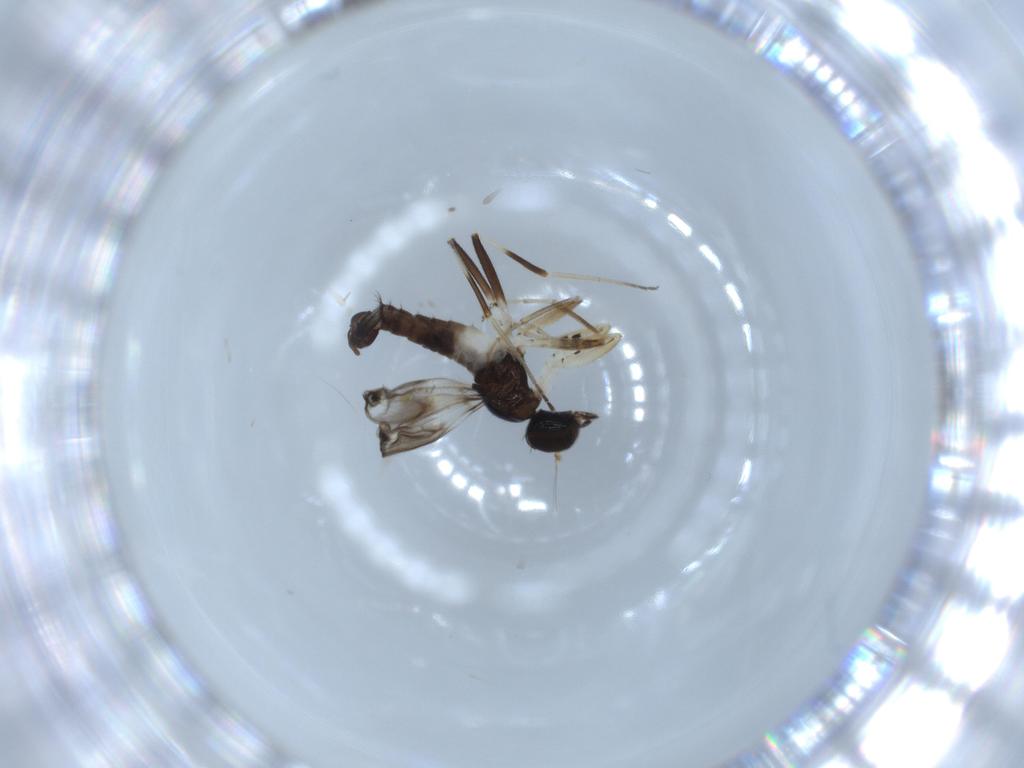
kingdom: Animalia
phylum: Arthropoda
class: Insecta
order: Diptera
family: Hybotidae
